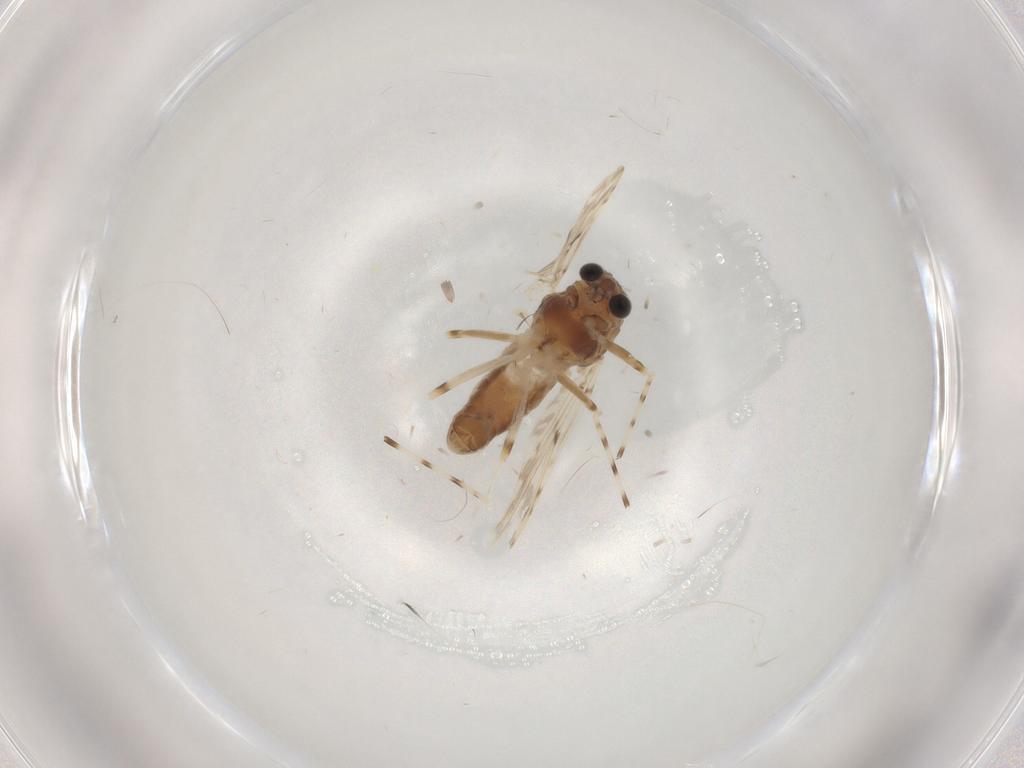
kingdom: Animalia
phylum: Arthropoda
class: Insecta
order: Diptera
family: Chironomidae
